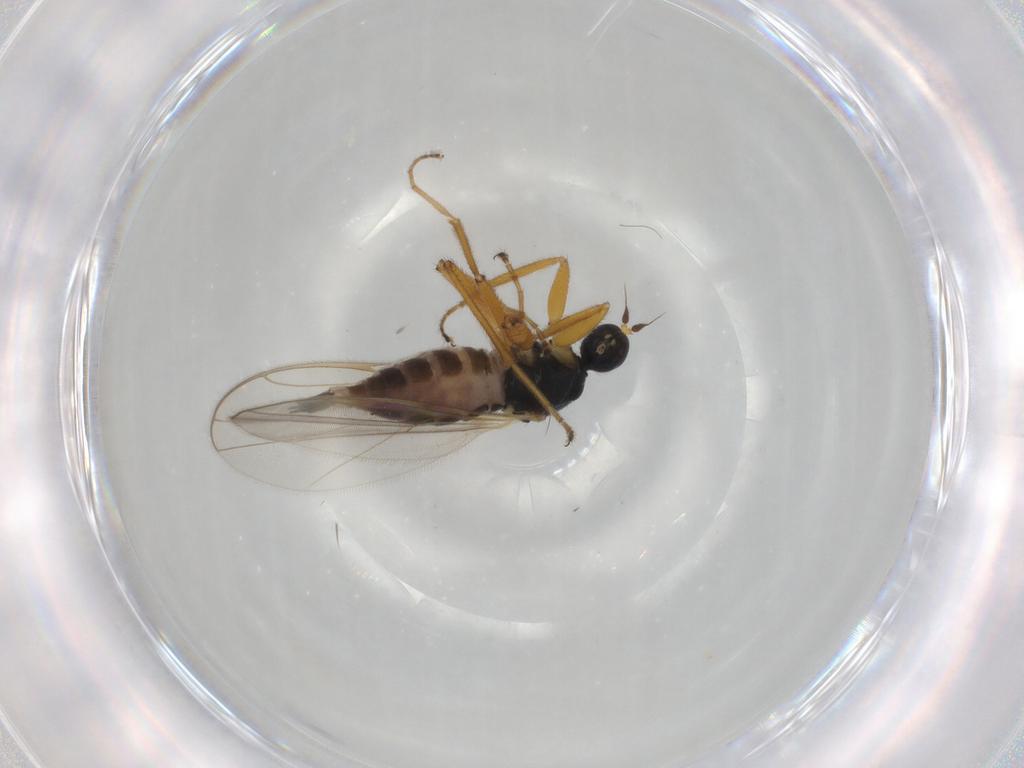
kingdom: Animalia
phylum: Arthropoda
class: Insecta
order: Diptera
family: Hybotidae
